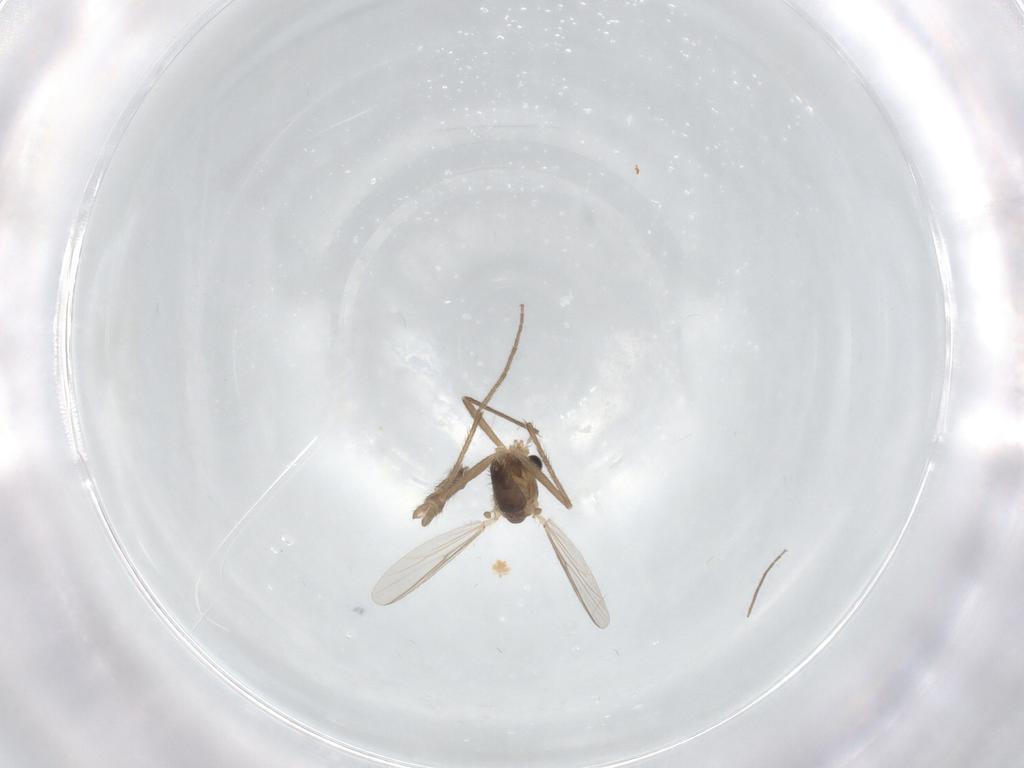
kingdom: Animalia
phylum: Arthropoda
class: Insecta
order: Diptera
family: Chironomidae
